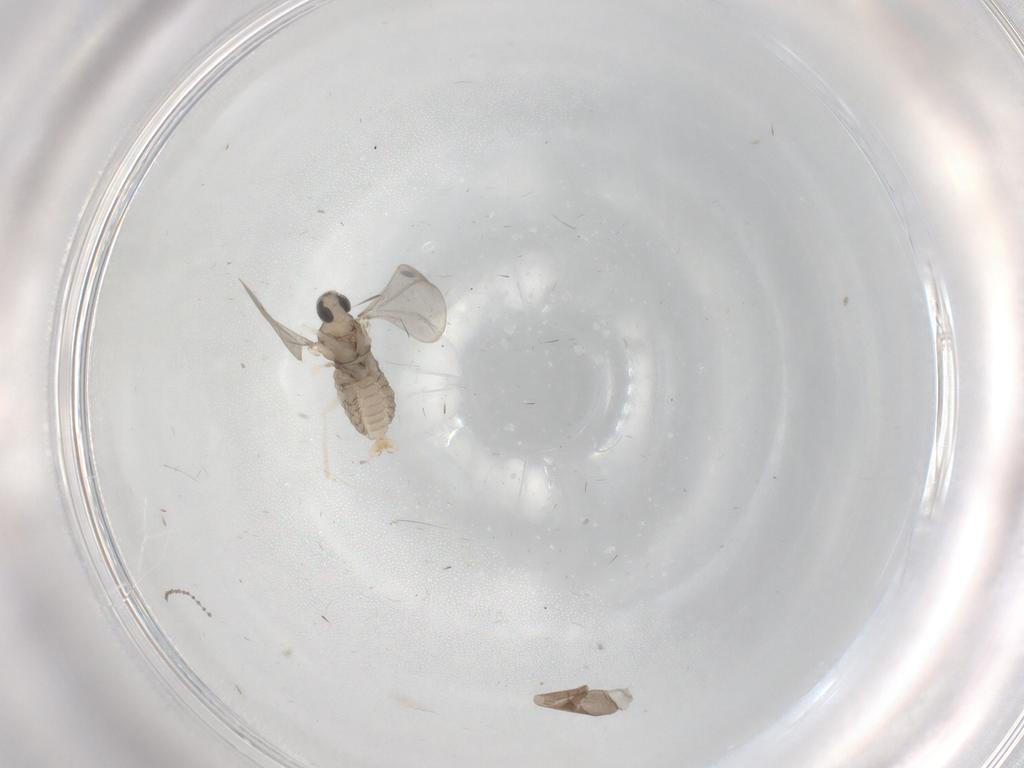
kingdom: Animalia
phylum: Arthropoda
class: Insecta
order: Diptera
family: Cecidomyiidae
